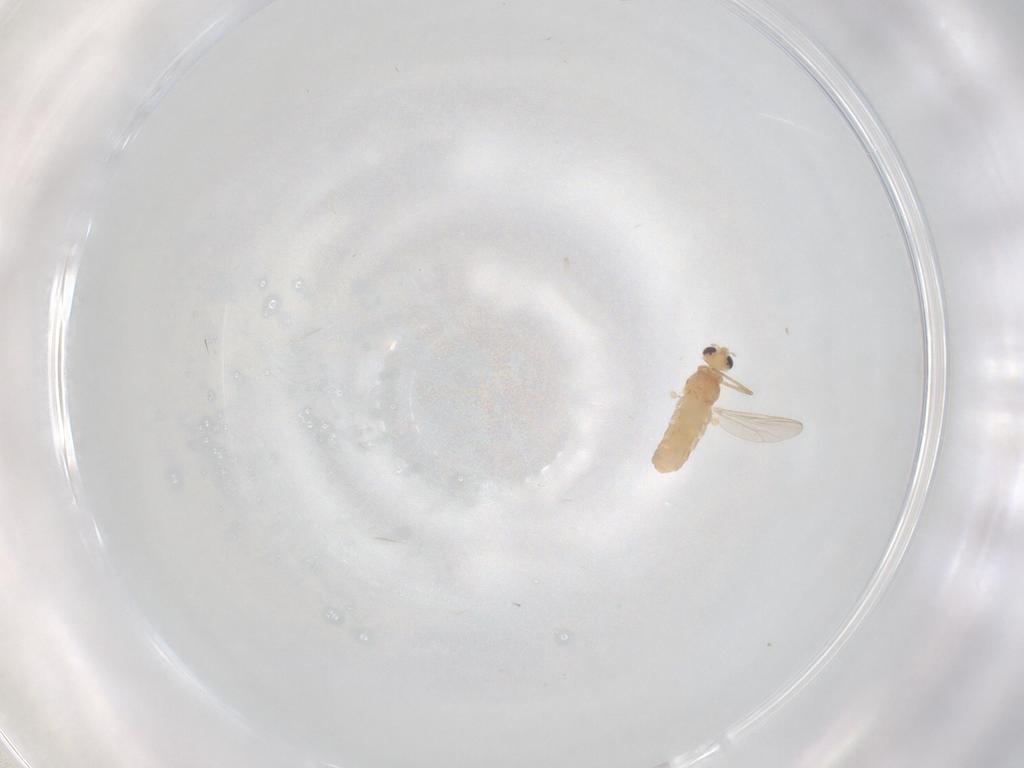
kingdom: Animalia
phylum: Arthropoda
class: Insecta
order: Diptera
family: Chironomidae
